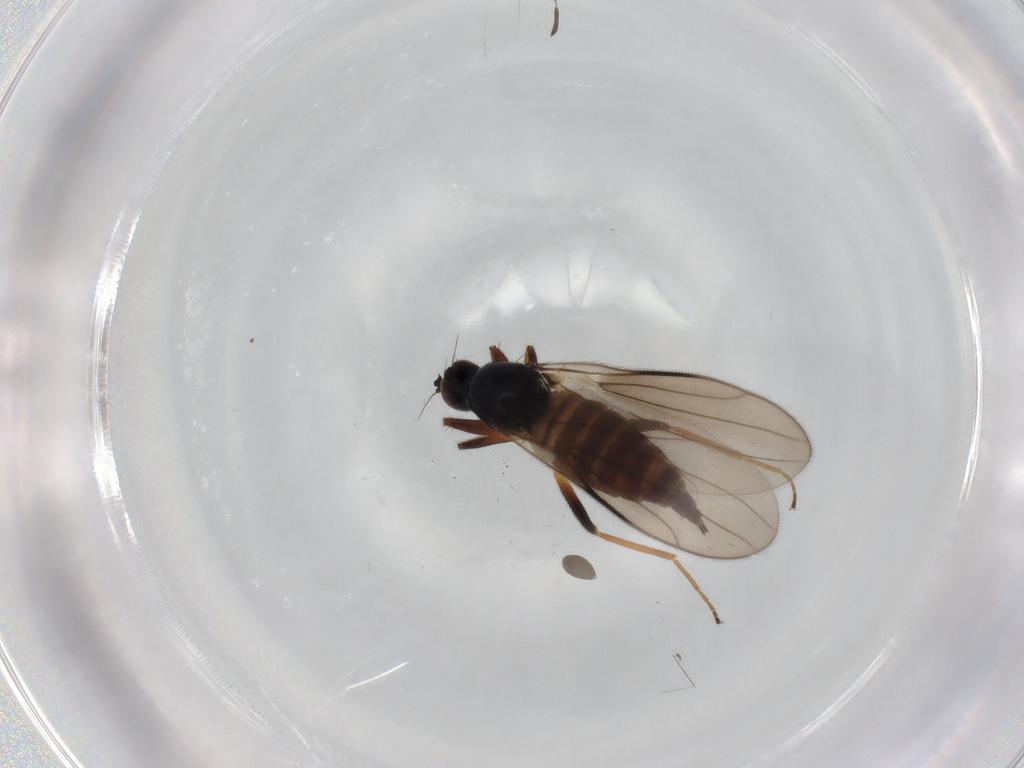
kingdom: Animalia
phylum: Arthropoda
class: Insecta
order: Diptera
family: Hybotidae
